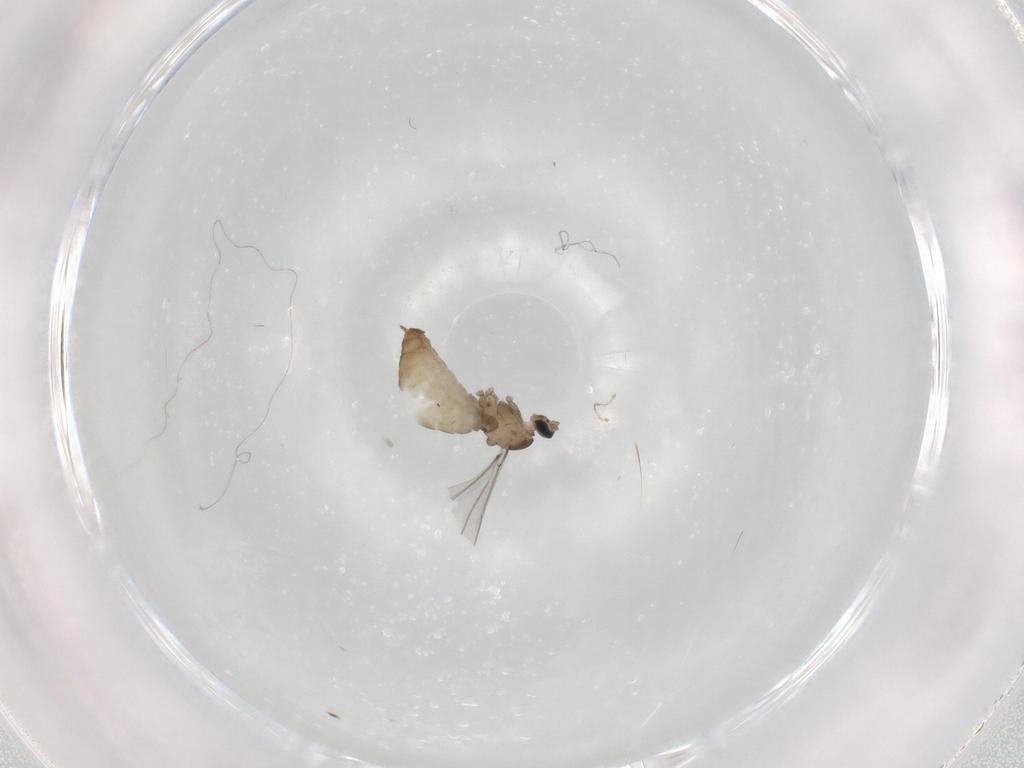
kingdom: Animalia
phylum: Arthropoda
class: Insecta
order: Diptera
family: Cecidomyiidae
